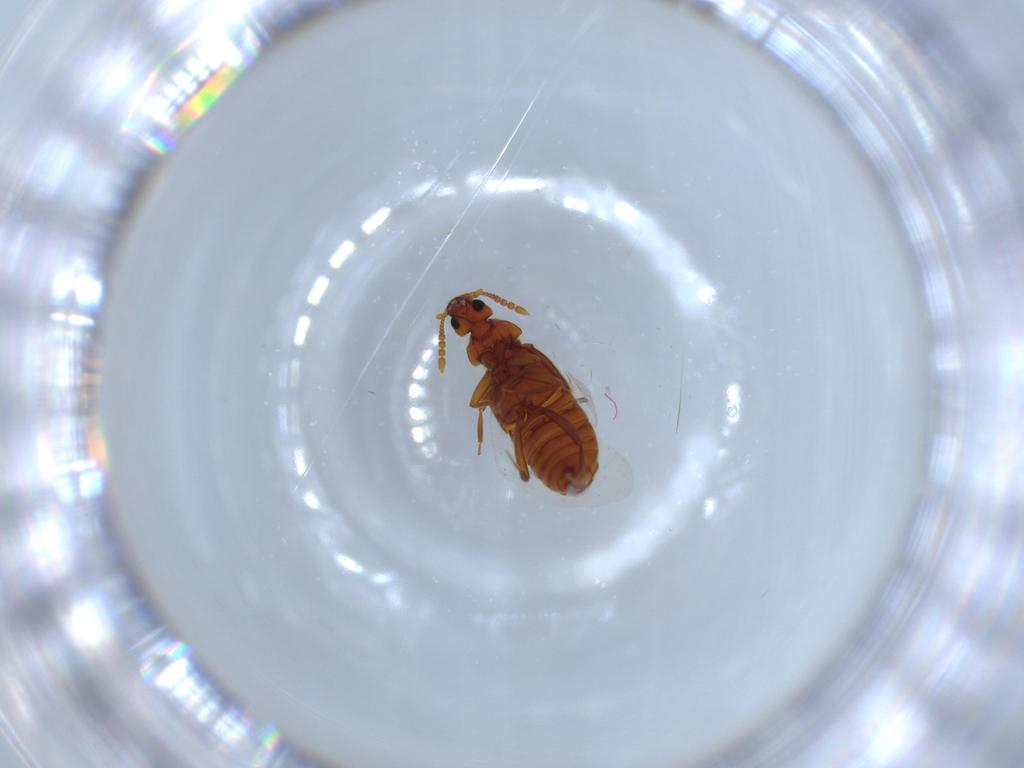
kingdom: Animalia
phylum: Arthropoda
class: Insecta
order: Coleoptera
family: Staphylinidae
